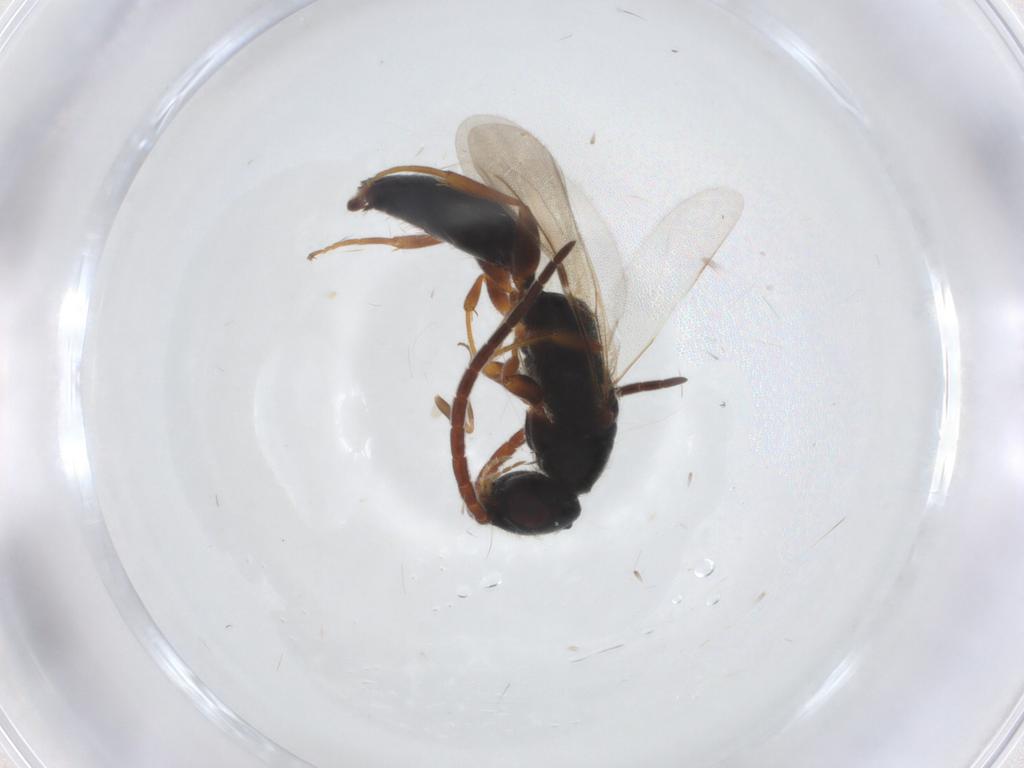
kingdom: Animalia
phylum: Arthropoda
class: Insecta
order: Hymenoptera
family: Bethylidae
